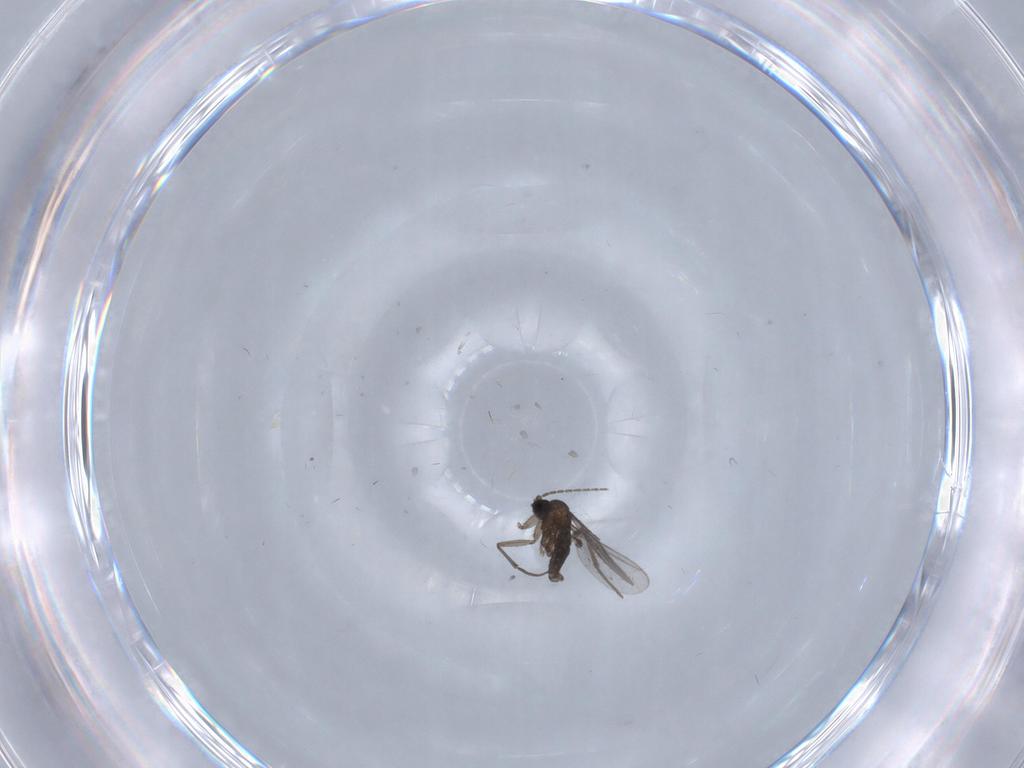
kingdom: Animalia
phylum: Arthropoda
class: Insecta
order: Diptera
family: Sciaridae
